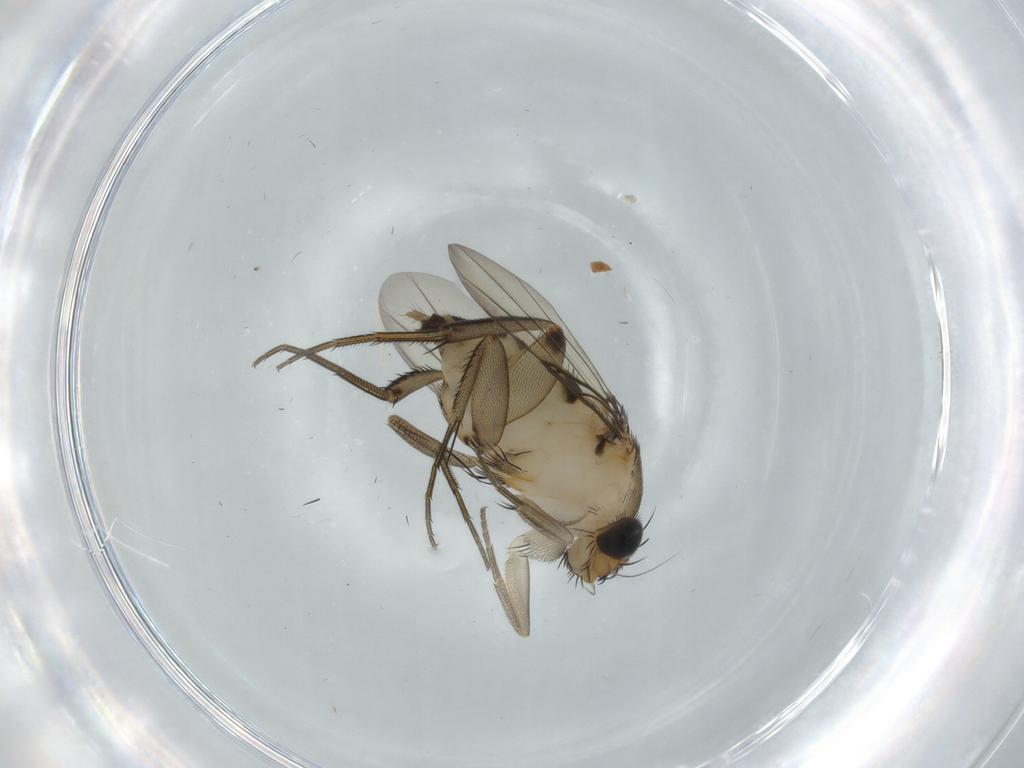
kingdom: Animalia
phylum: Arthropoda
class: Insecta
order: Diptera
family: Phoridae
